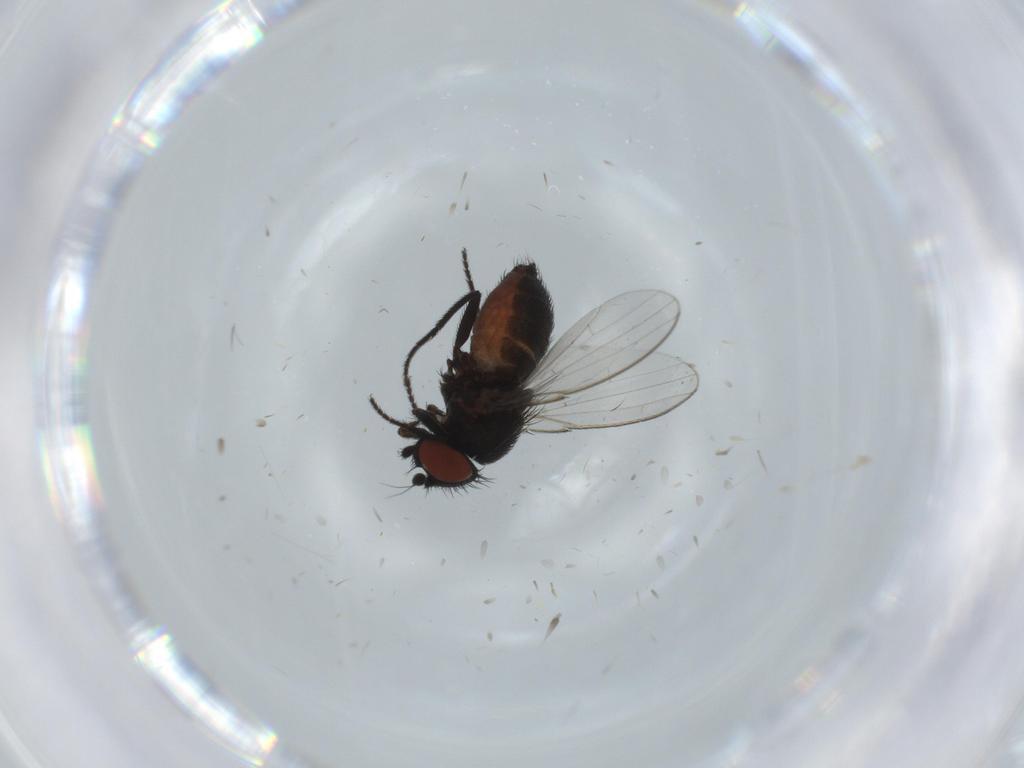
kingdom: Animalia
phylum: Arthropoda
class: Insecta
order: Diptera
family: Milichiidae
